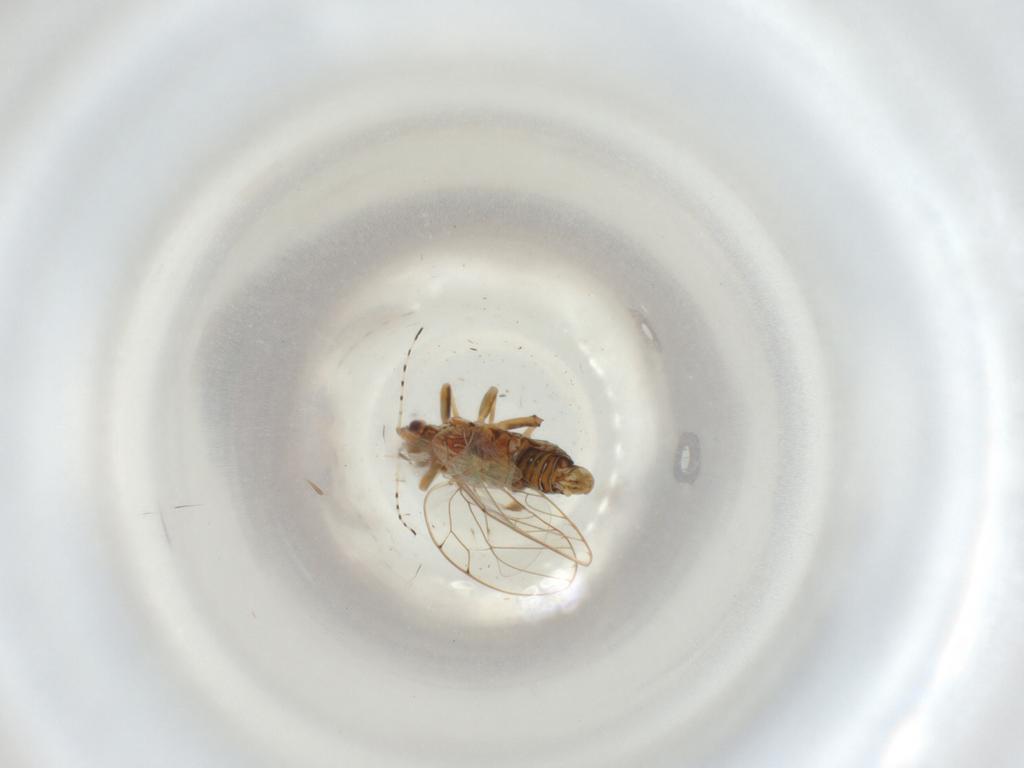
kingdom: Animalia
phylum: Arthropoda
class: Insecta
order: Hemiptera
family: Carsidaridae
